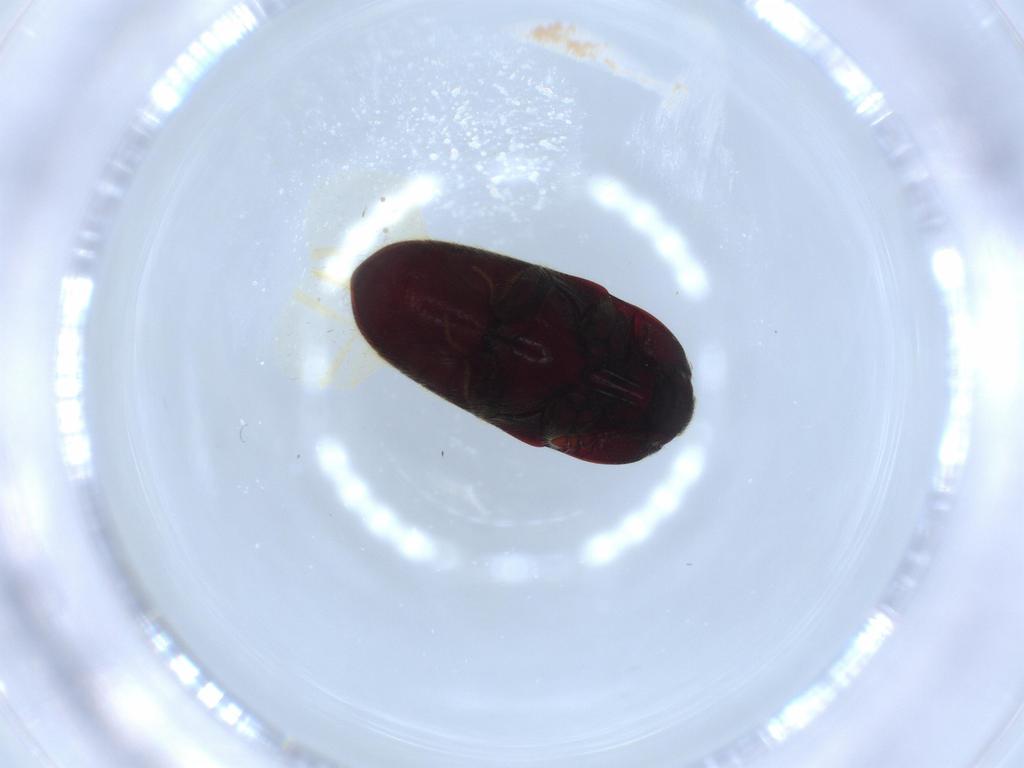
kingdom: Animalia
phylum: Arthropoda
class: Insecta
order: Coleoptera
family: Throscidae
